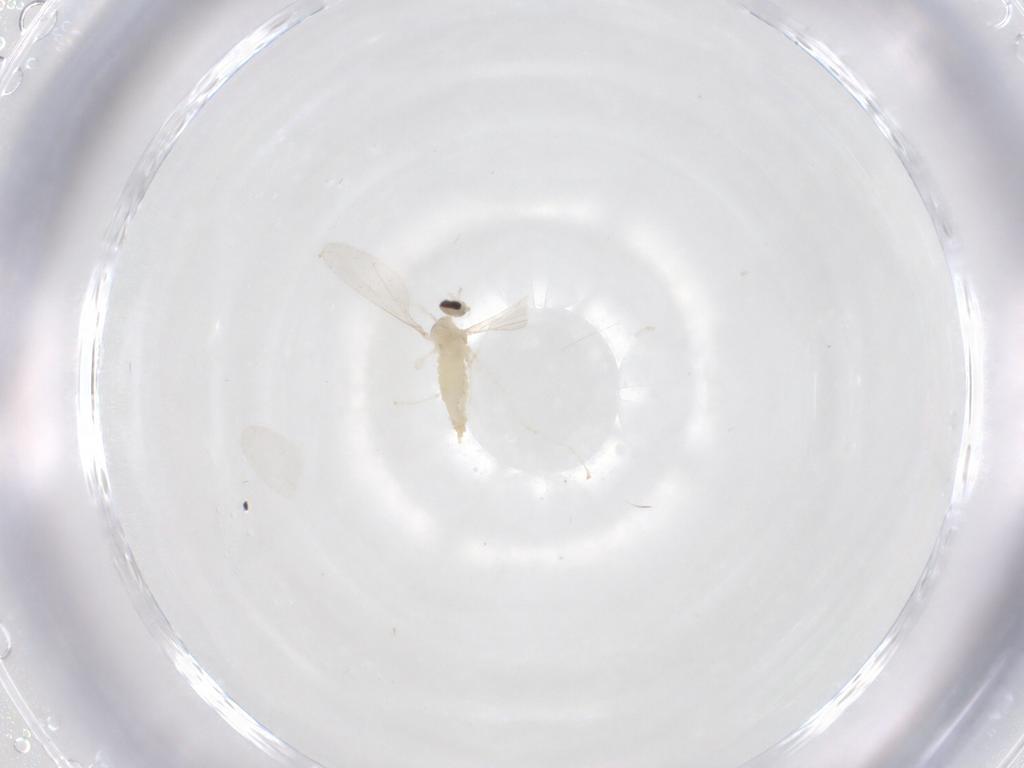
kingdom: Animalia
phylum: Arthropoda
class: Insecta
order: Diptera
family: Cecidomyiidae
